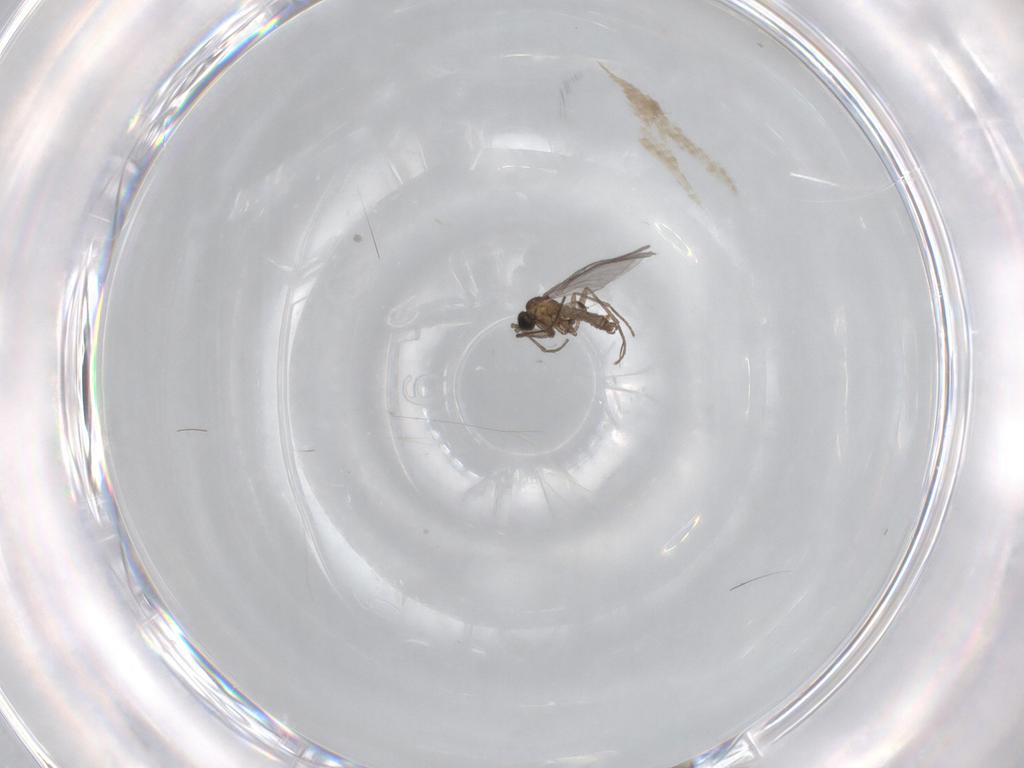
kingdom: Animalia
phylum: Arthropoda
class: Insecta
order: Diptera
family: Sciaridae
